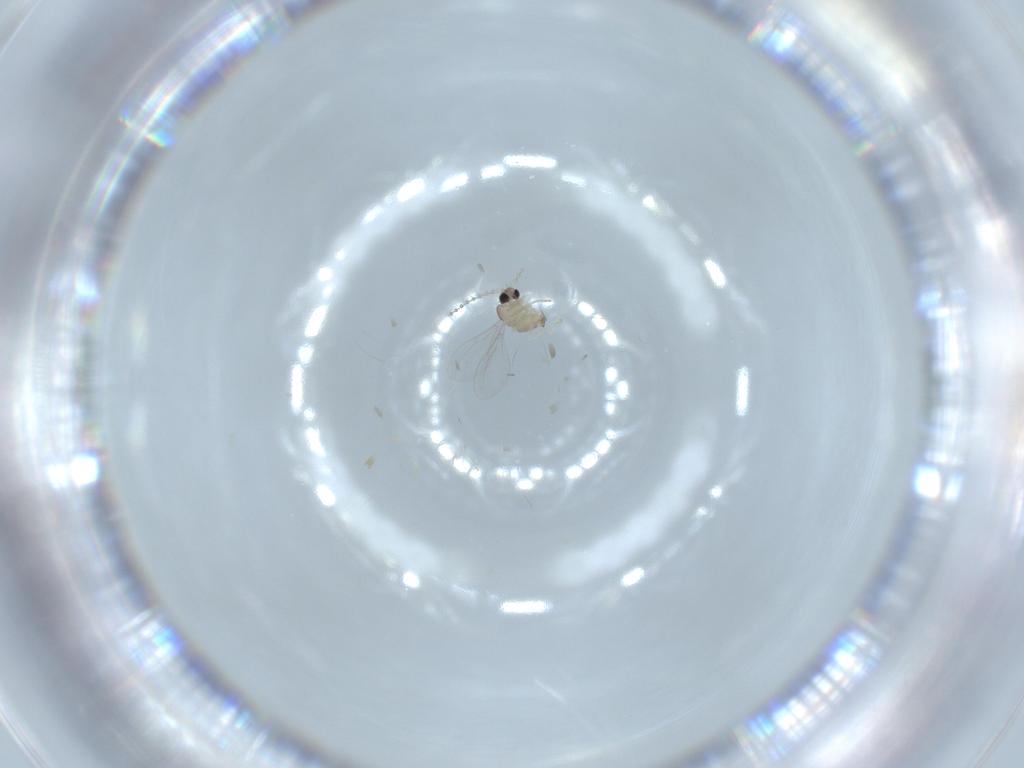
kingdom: Animalia
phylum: Arthropoda
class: Insecta
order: Diptera
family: Cecidomyiidae
